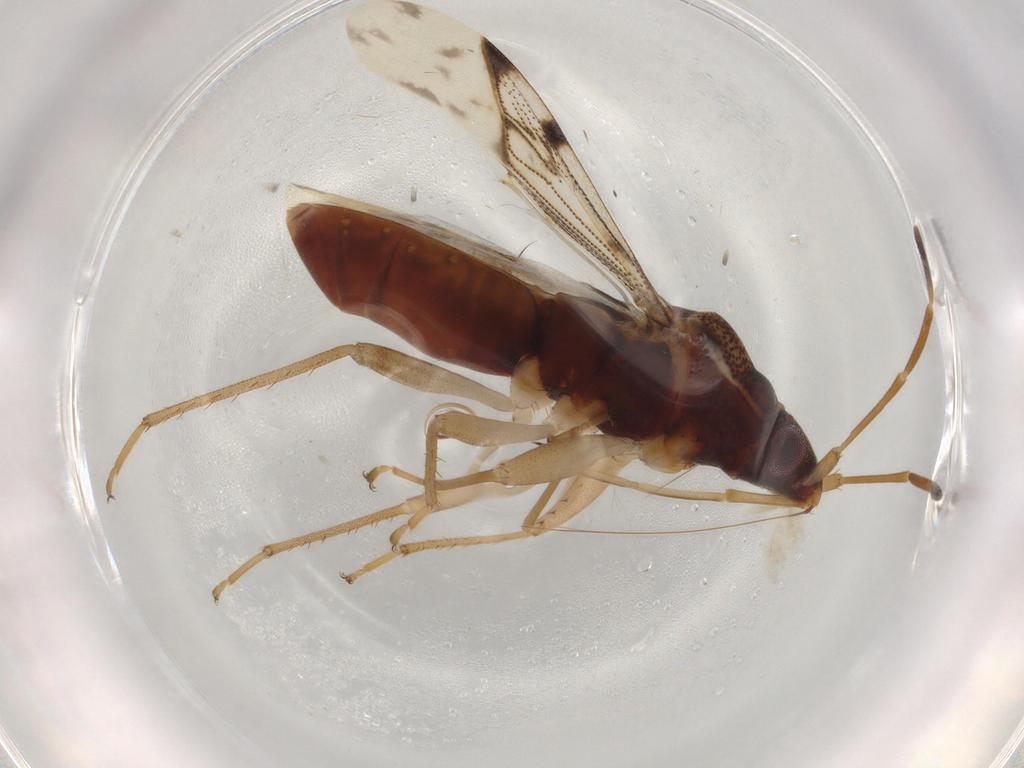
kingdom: Animalia
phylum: Arthropoda
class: Insecta
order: Hemiptera
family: Rhyparochromidae
